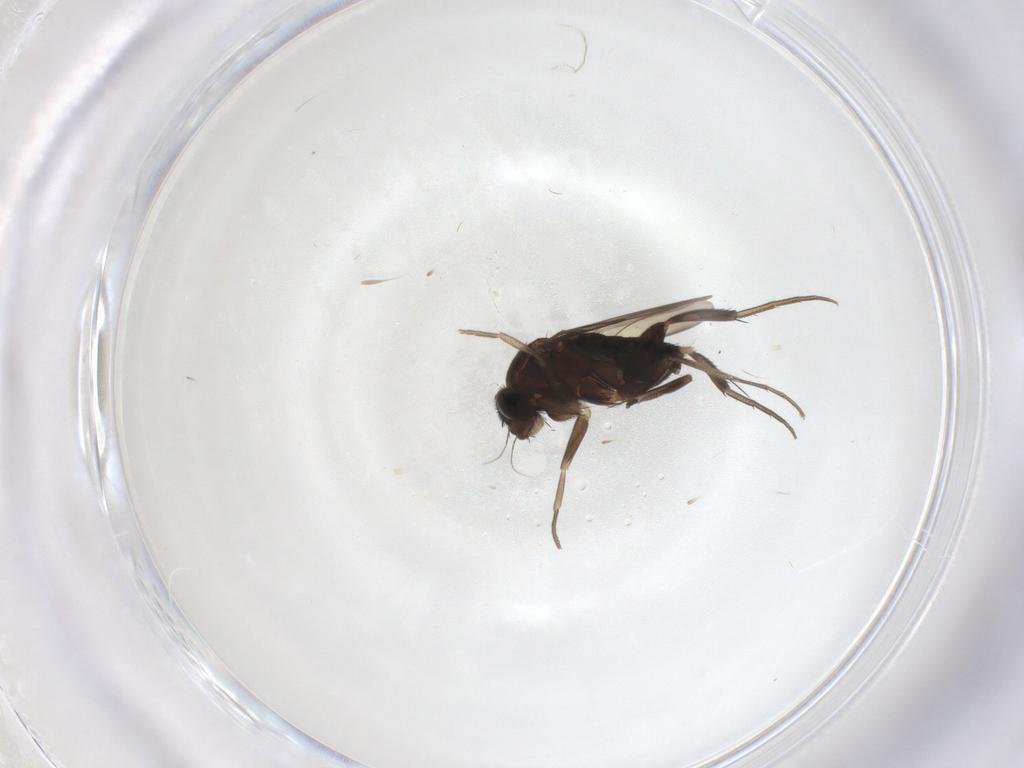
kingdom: Animalia
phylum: Arthropoda
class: Insecta
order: Diptera
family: Phoridae
